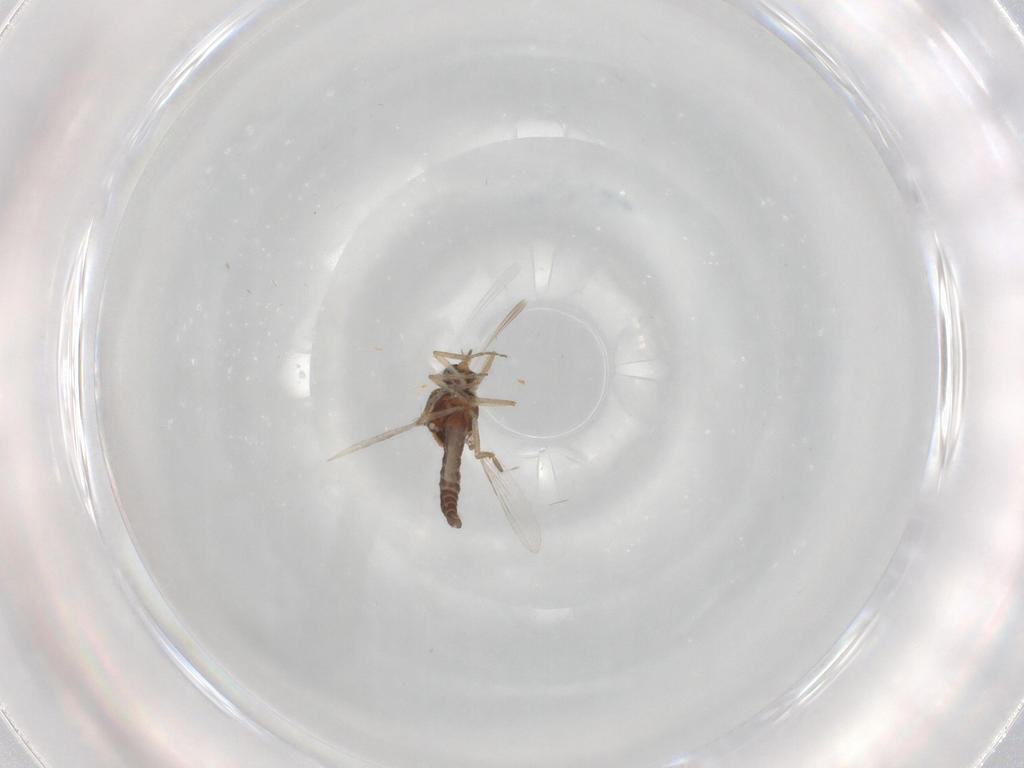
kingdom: Animalia
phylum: Arthropoda
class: Insecta
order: Diptera
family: Ceratopogonidae
